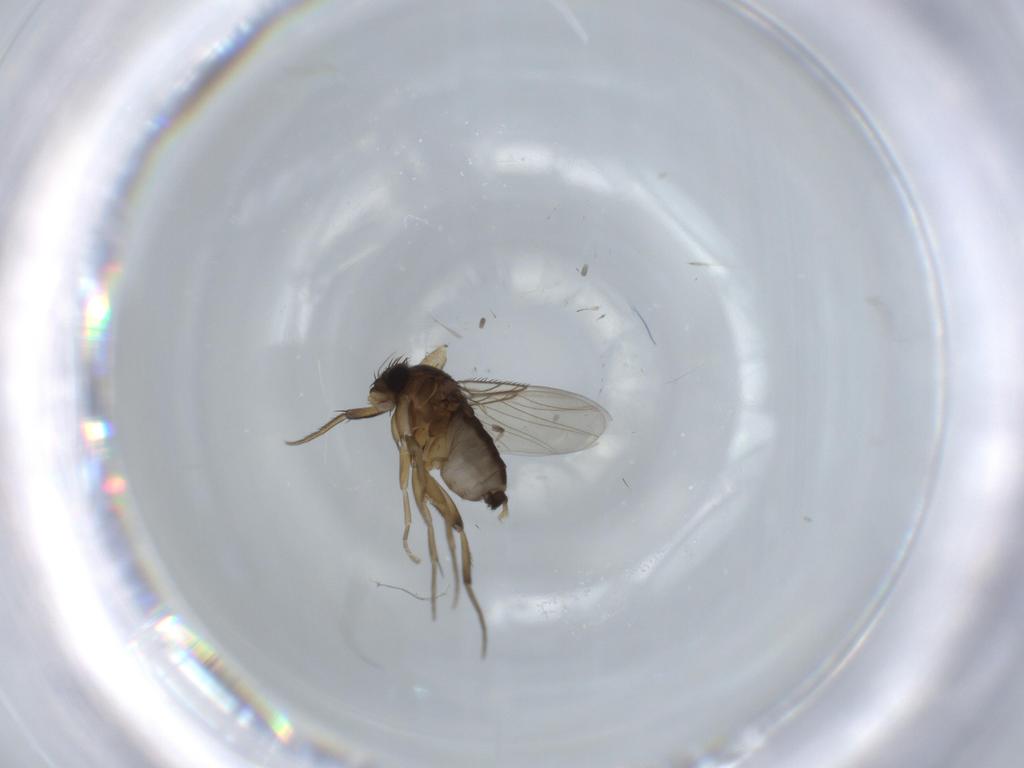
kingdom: Animalia
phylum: Arthropoda
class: Insecta
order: Diptera
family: Phoridae
